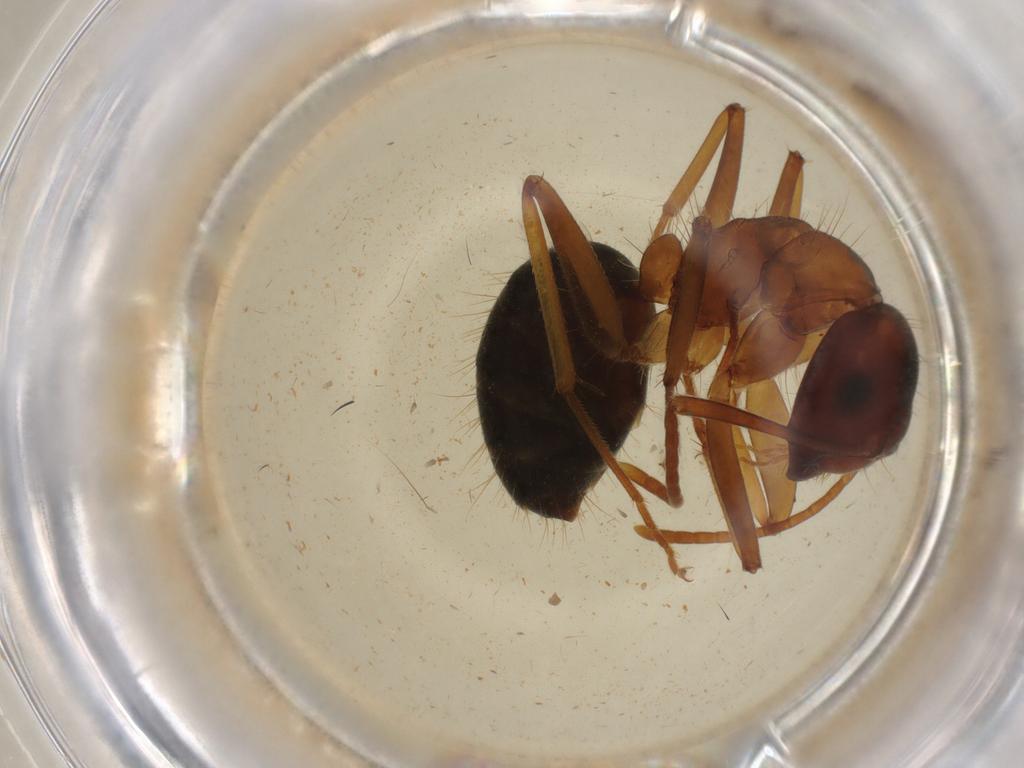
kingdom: Animalia
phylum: Arthropoda
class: Insecta
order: Hymenoptera
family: Formicidae
